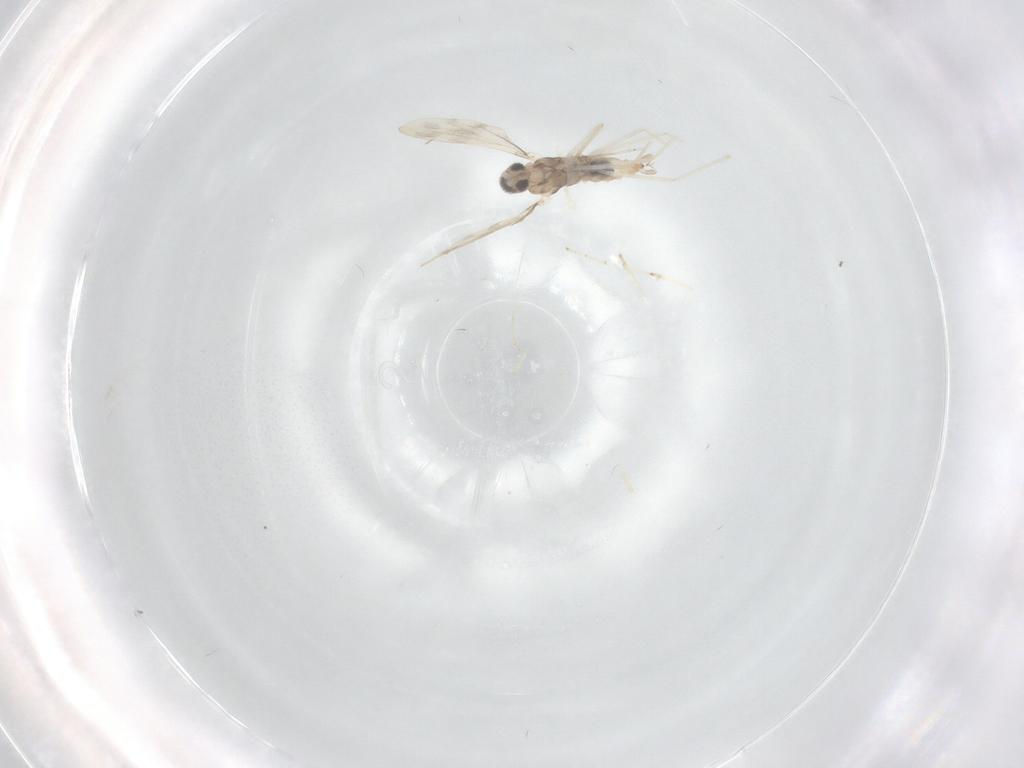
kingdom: Animalia
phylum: Arthropoda
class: Insecta
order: Diptera
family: Cecidomyiidae
